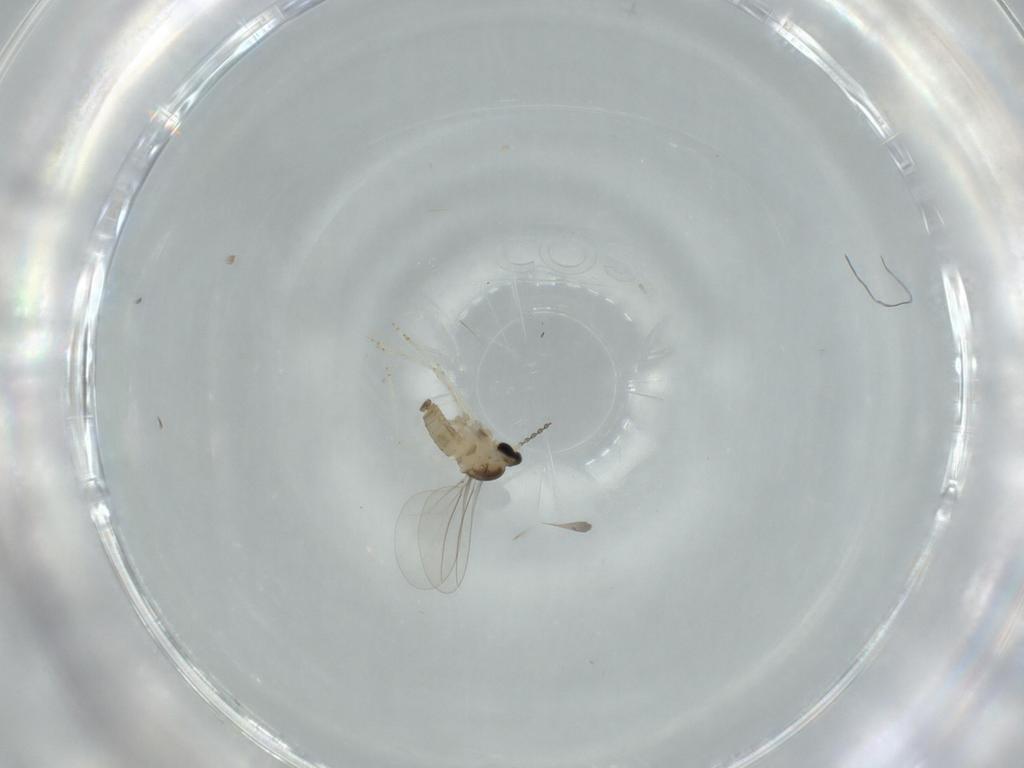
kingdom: Animalia
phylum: Arthropoda
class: Insecta
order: Diptera
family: Cecidomyiidae
